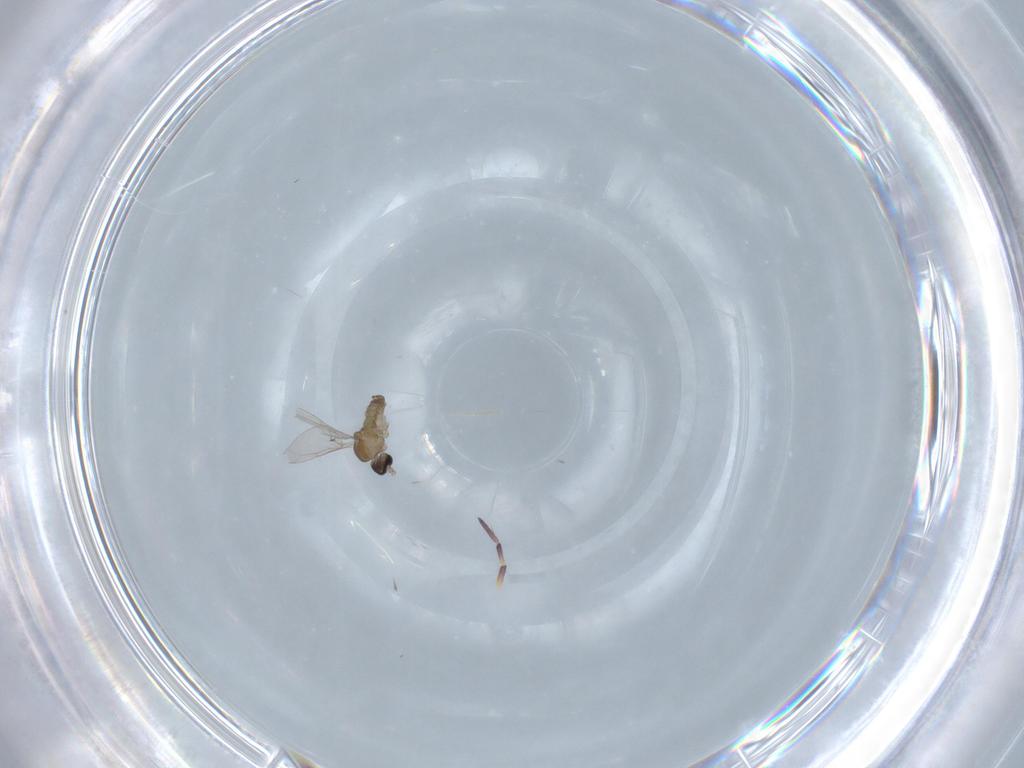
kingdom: Animalia
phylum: Arthropoda
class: Insecta
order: Diptera
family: Cecidomyiidae
